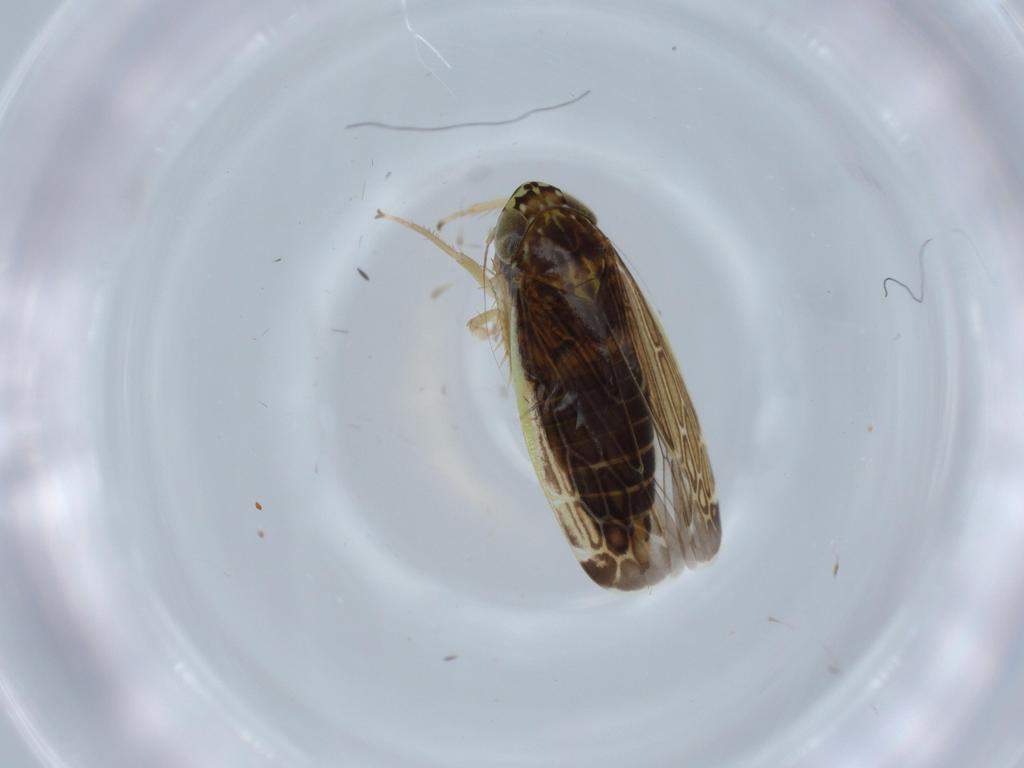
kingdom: Animalia
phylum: Arthropoda
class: Insecta
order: Hemiptera
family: Cicadellidae
